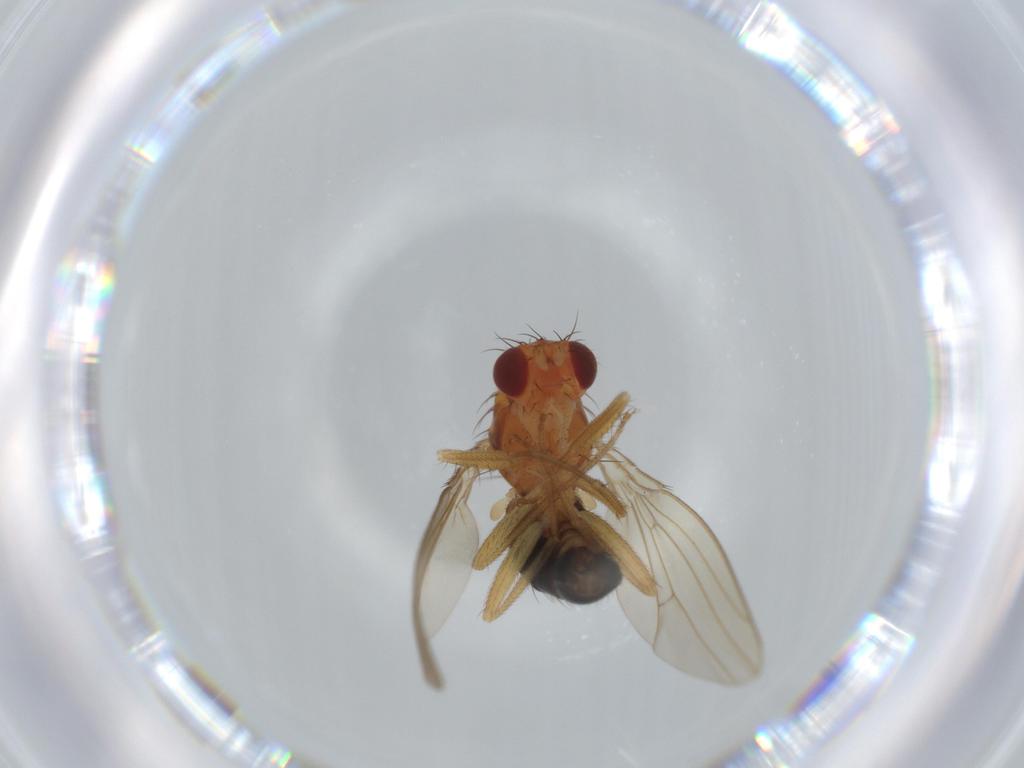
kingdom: Animalia
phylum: Arthropoda
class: Insecta
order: Diptera
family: Drosophilidae
